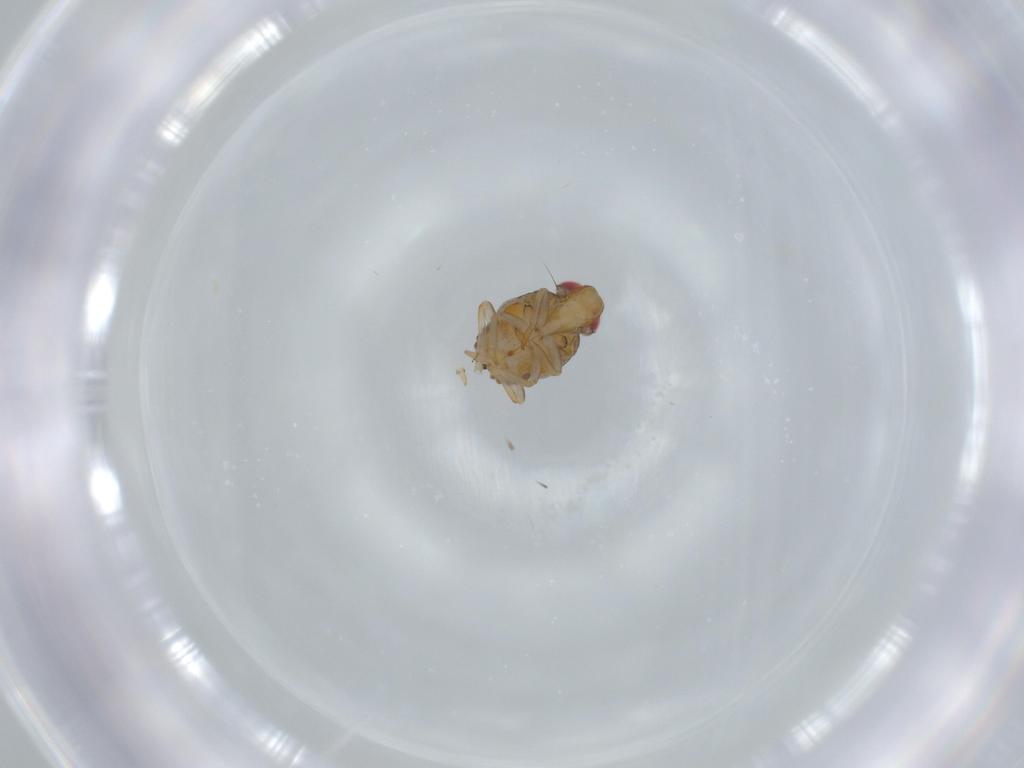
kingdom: Animalia
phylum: Arthropoda
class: Insecta
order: Hemiptera
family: Issidae
